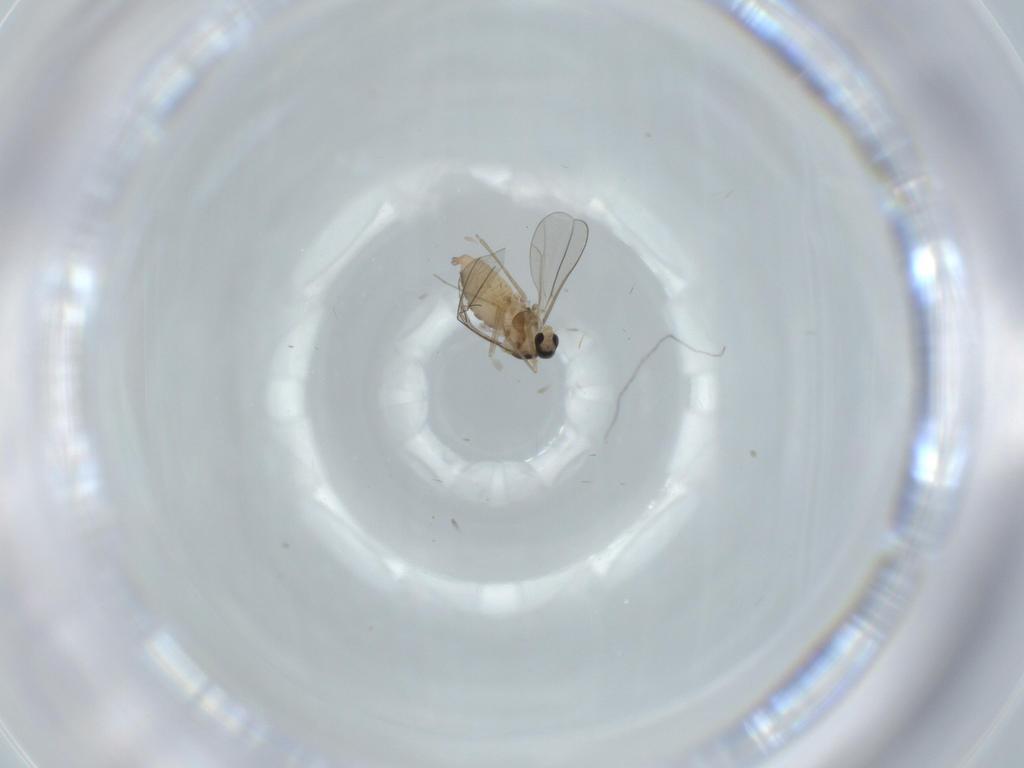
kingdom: Animalia
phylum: Arthropoda
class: Insecta
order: Diptera
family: Cecidomyiidae
